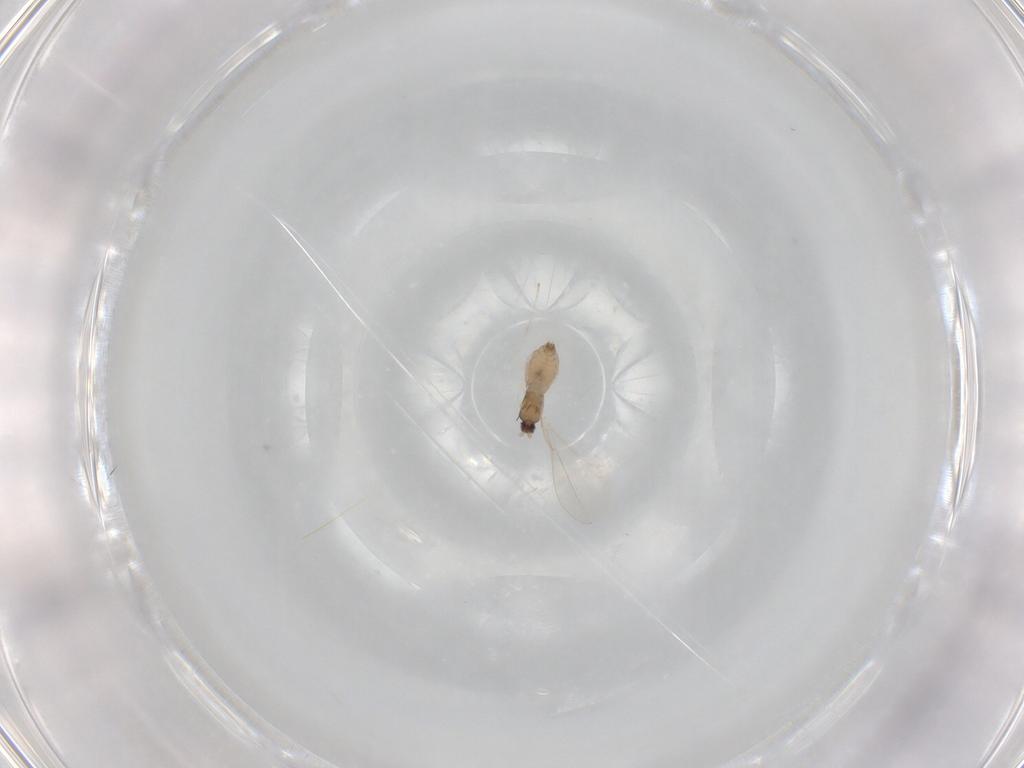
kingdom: Animalia
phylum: Arthropoda
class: Insecta
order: Diptera
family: Cecidomyiidae
